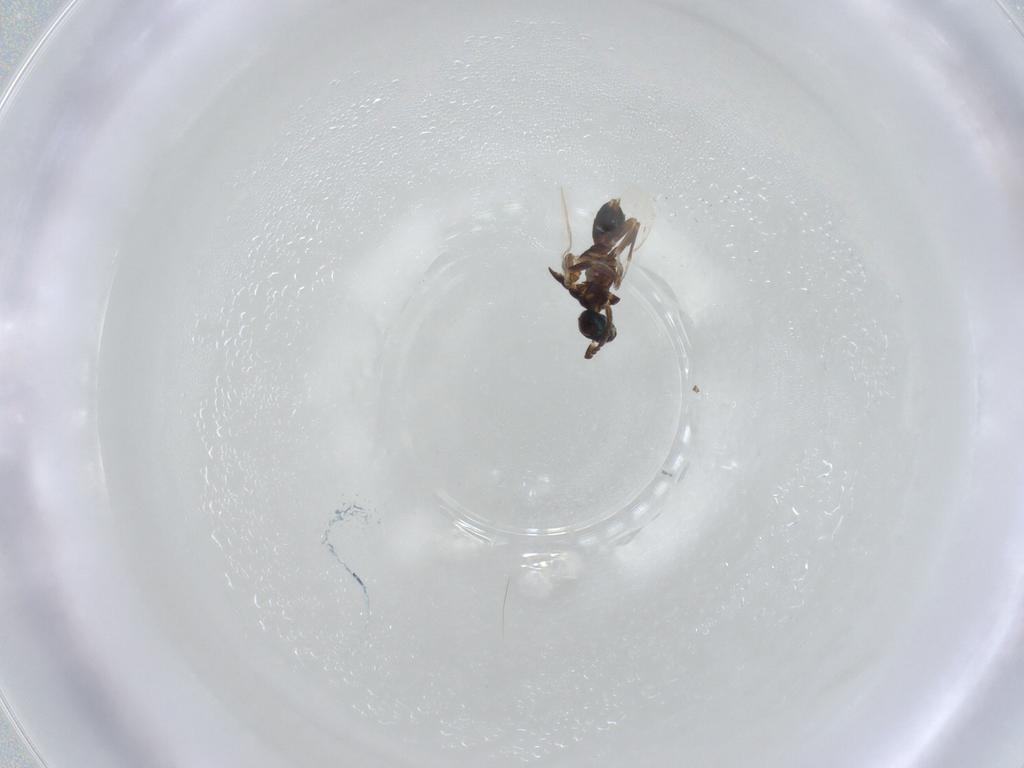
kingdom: Animalia
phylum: Arthropoda
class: Insecta
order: Hymenoptera
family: Eupelmidae
